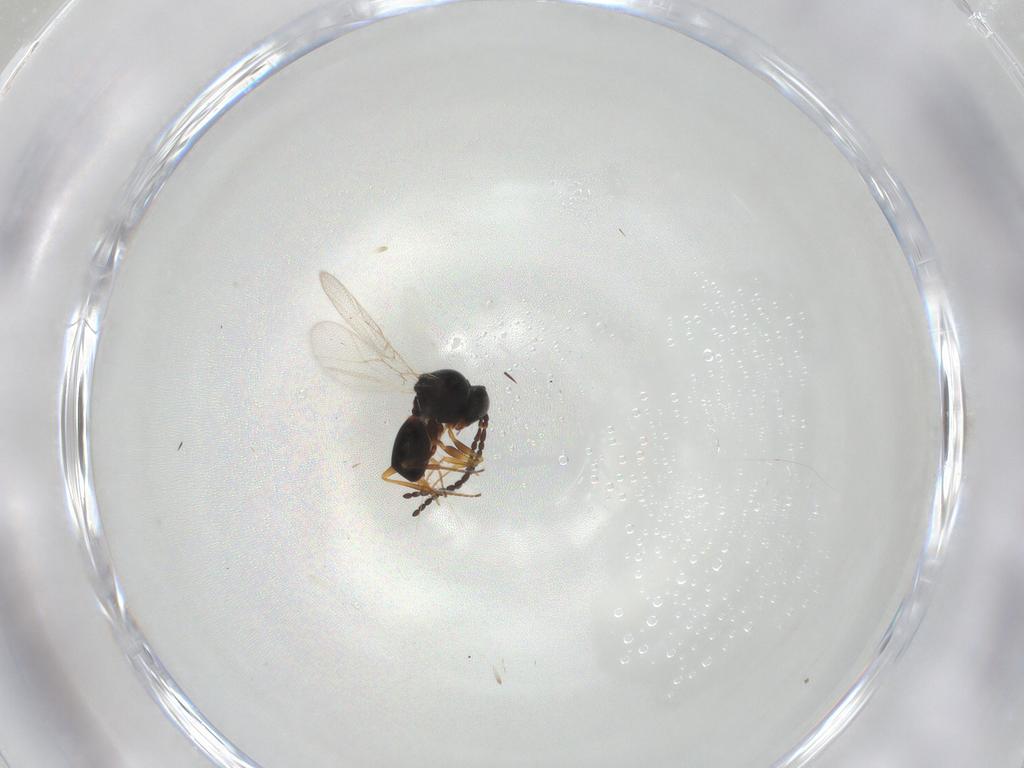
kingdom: Animalia
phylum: Arthropoda
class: Insecta
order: Hymenoptera
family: Figitidae
